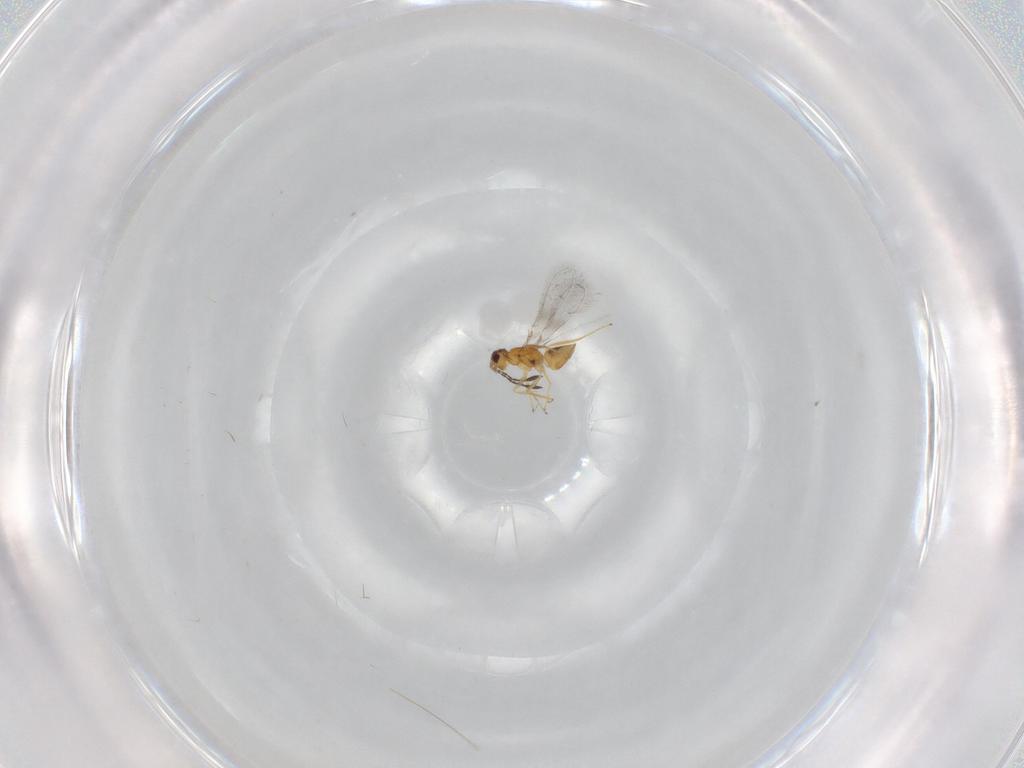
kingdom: Animalia
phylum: Arthropoda
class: Insecta
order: Hymenoptera
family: Formicidae
